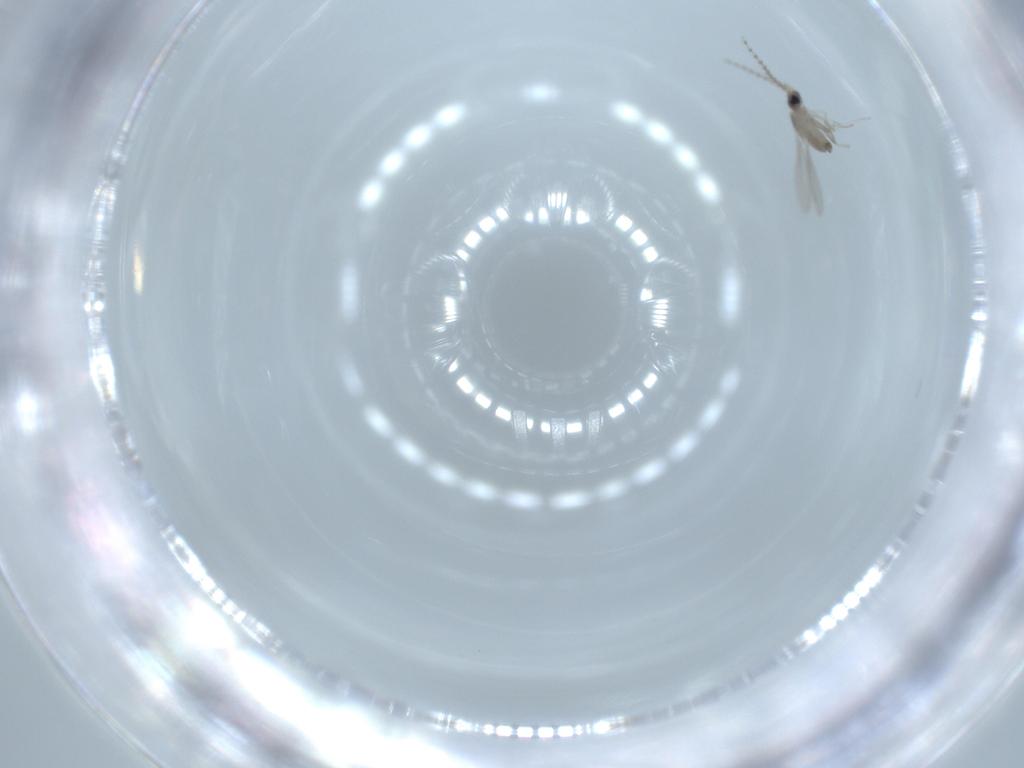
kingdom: Animalia
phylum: Arthropoda
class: Insecta
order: Diptera
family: Cecidomyiidae
